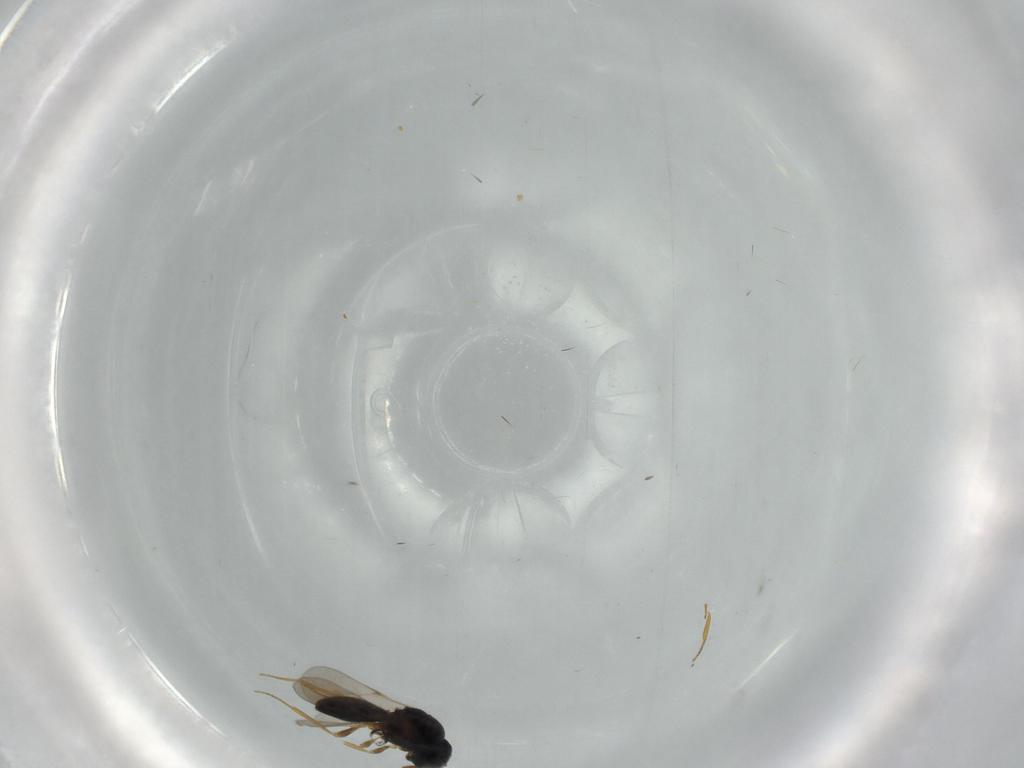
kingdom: Animalia
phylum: Arthropoda
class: Insecta
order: Hymenoptera
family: Scelionidae
